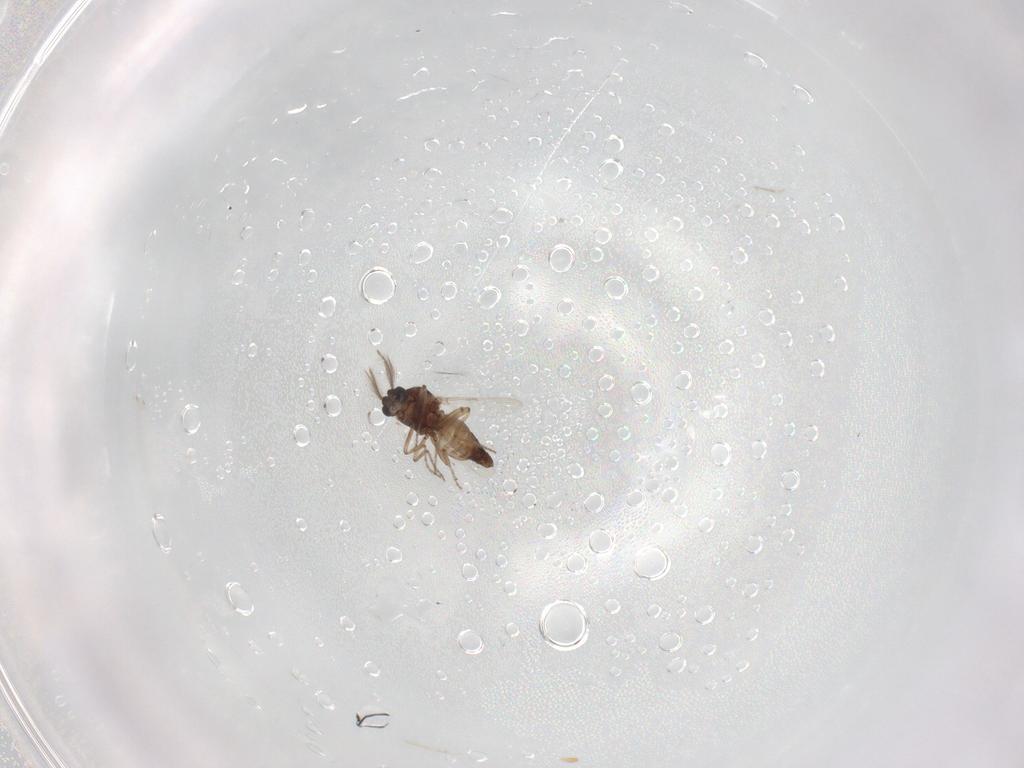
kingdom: Animalia
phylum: Arthropoda
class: Insecta
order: Diptera
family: Ceratopogonidae
